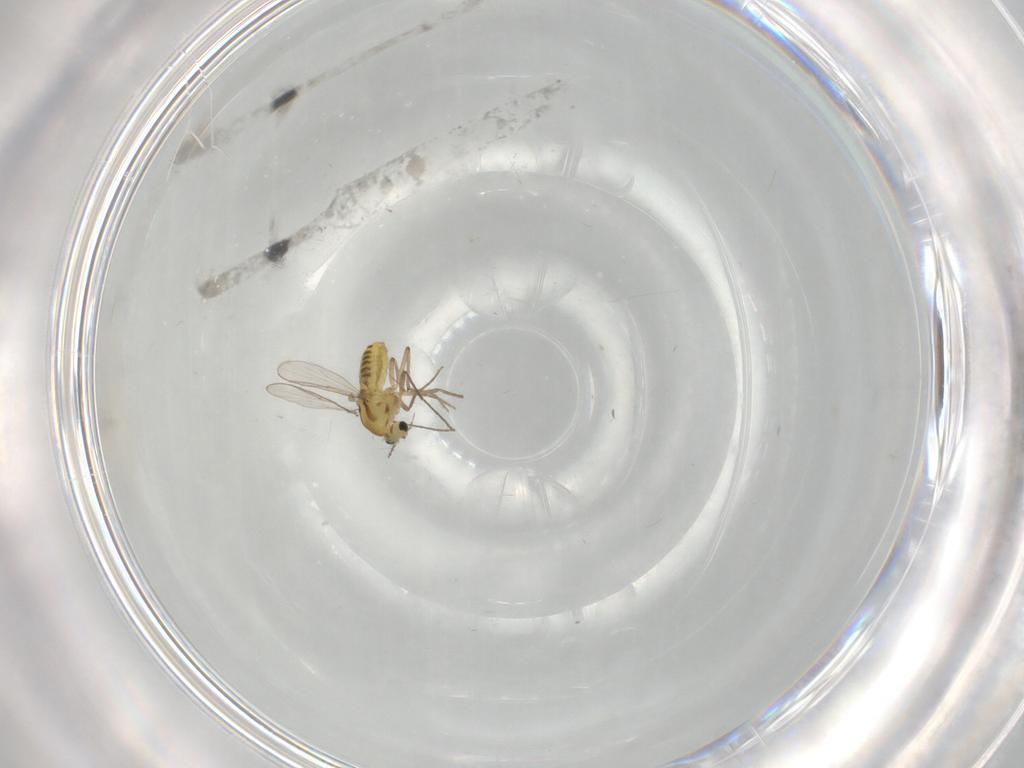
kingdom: Animalia
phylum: Arthropoda
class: Insecta
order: Diptera
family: Chironomidae
